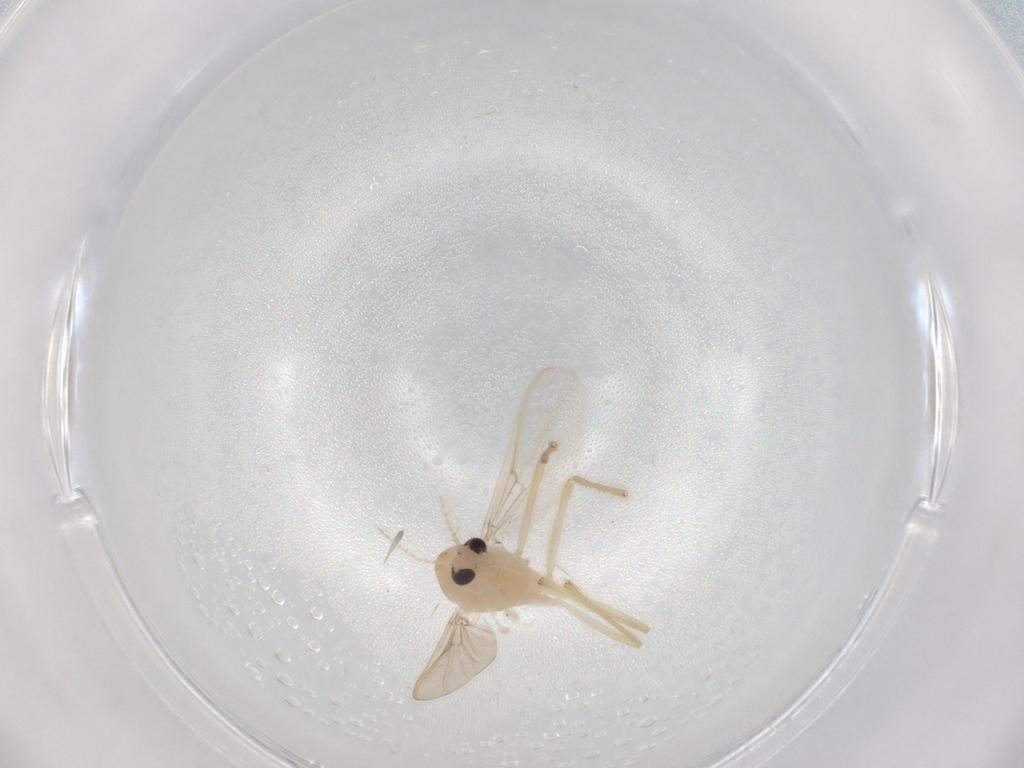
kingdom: Animalia
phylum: Arthropoda
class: Insecta
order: Diptera
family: Chironomidae
